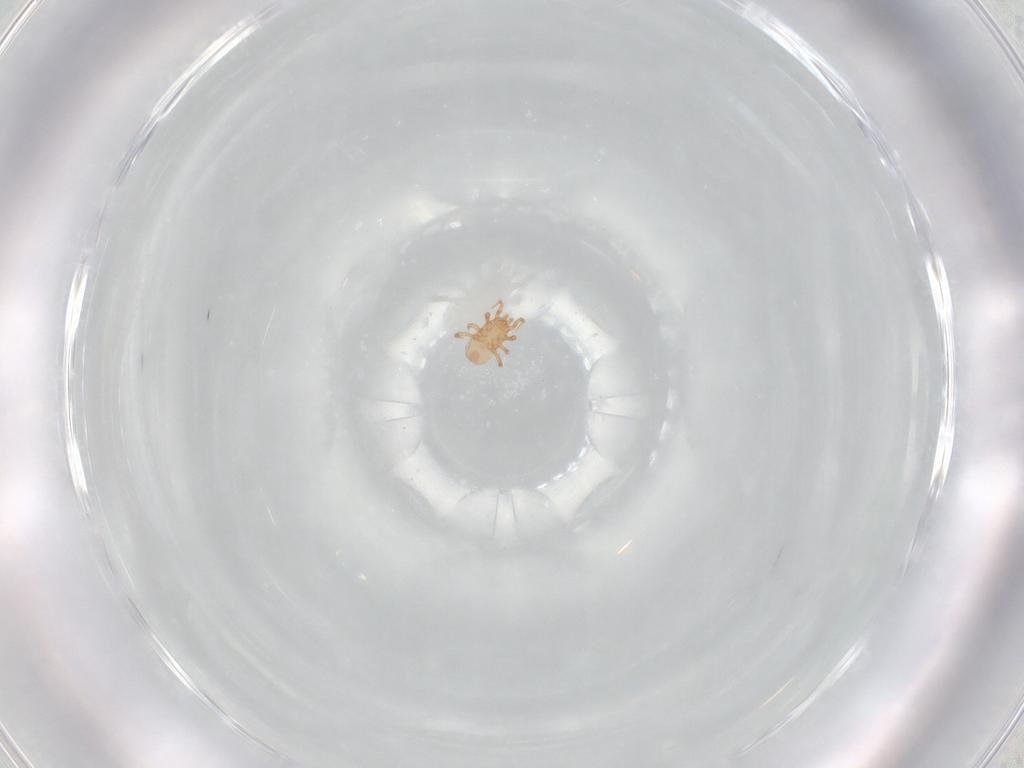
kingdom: Animalia
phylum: Arthropoda
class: Arachnida
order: Mesostigmata
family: Ascidae
